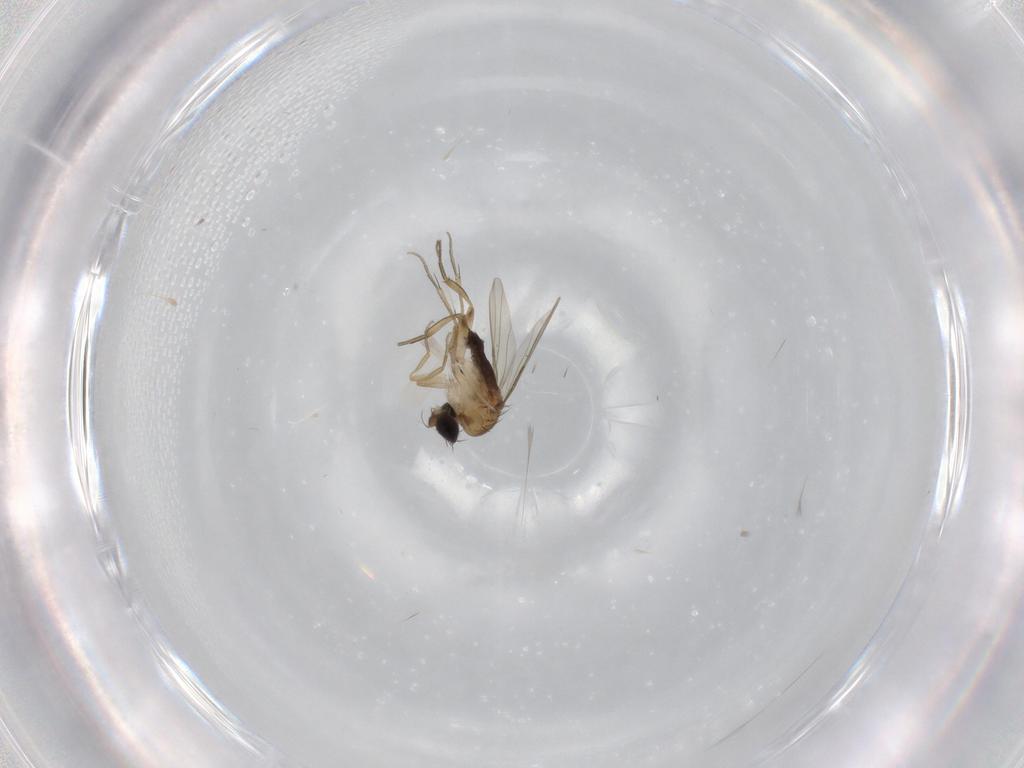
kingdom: Animalia
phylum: Arthropoda
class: Insecta
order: Diptera
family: Phoridae
